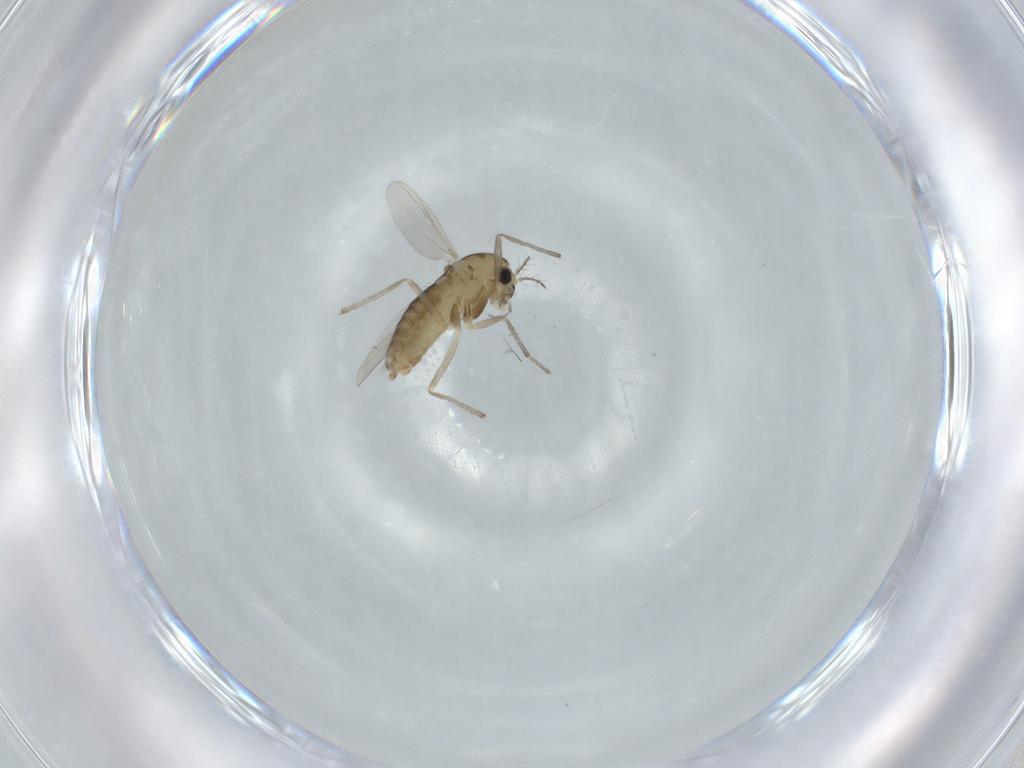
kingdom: Animalia
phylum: Arthropoda
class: Insecta
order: Diptera
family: Chironomidae
